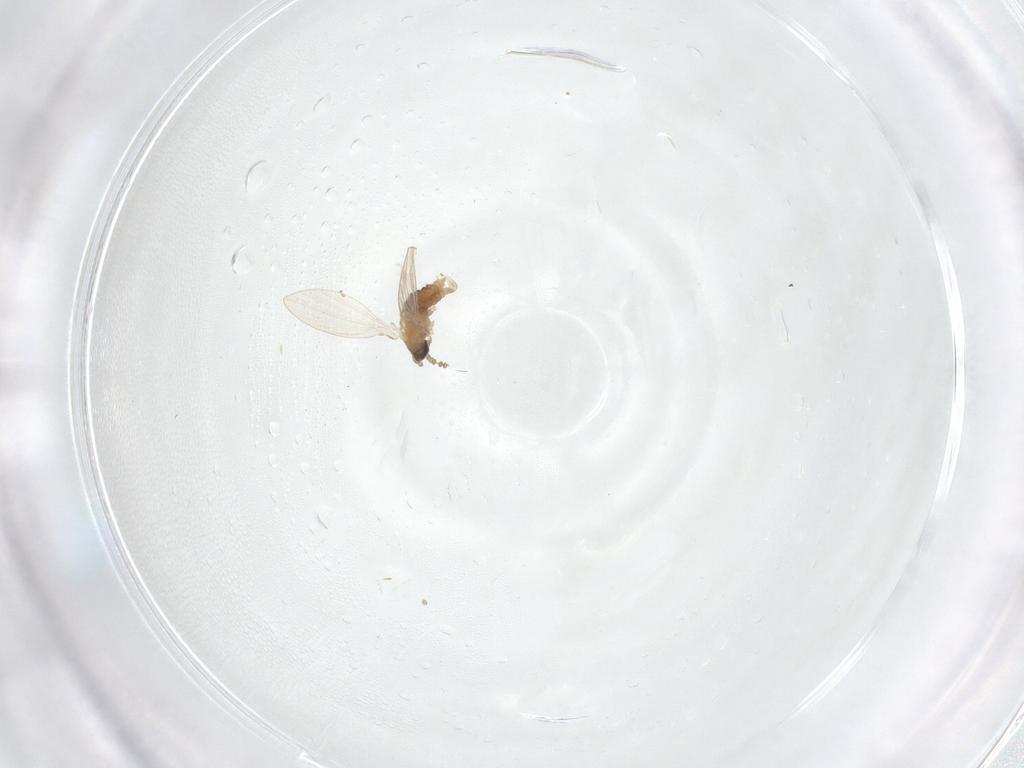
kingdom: Animalia
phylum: Arthropoda
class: Insecta
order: Diptera
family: Psychodidae
